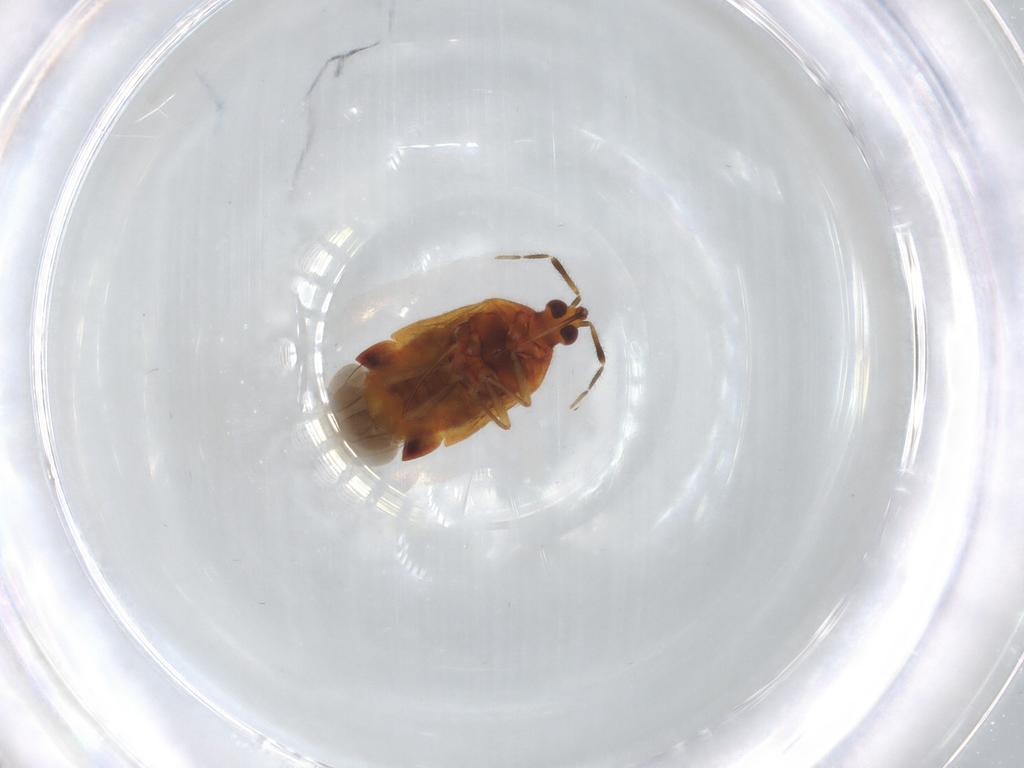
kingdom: Animalia
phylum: Arthropoda
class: Insecta
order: Hemiptera
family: Anthocoridae
